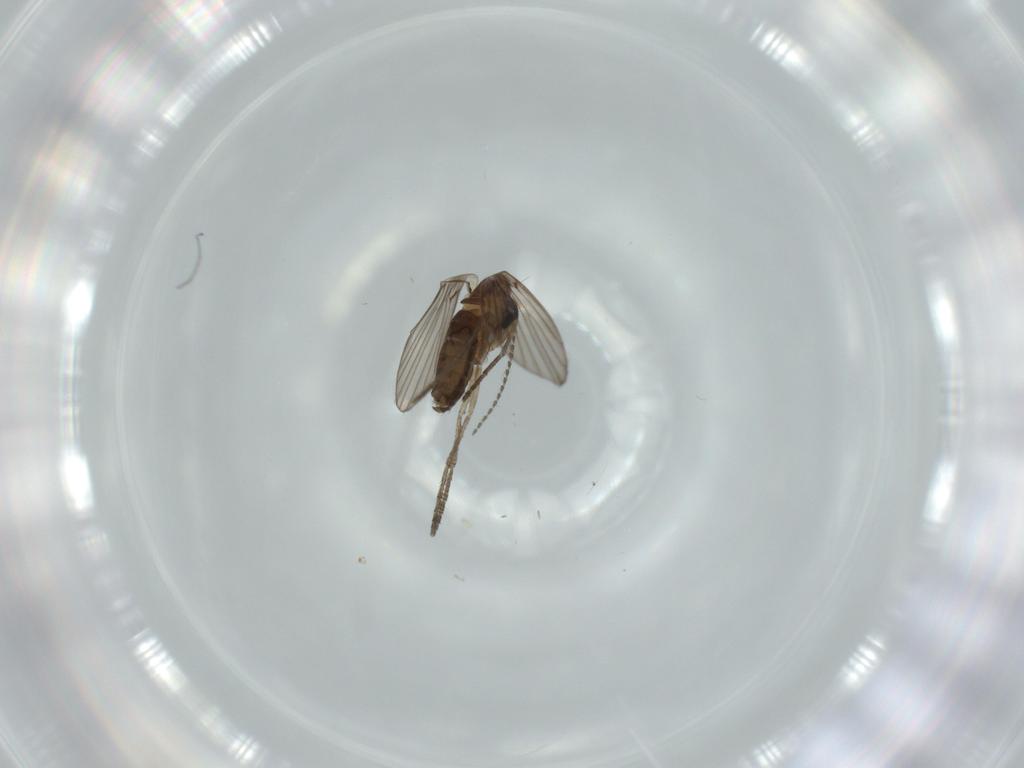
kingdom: Animalia
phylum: Arthropoda
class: Insecta
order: Diptera
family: Psychodidae
